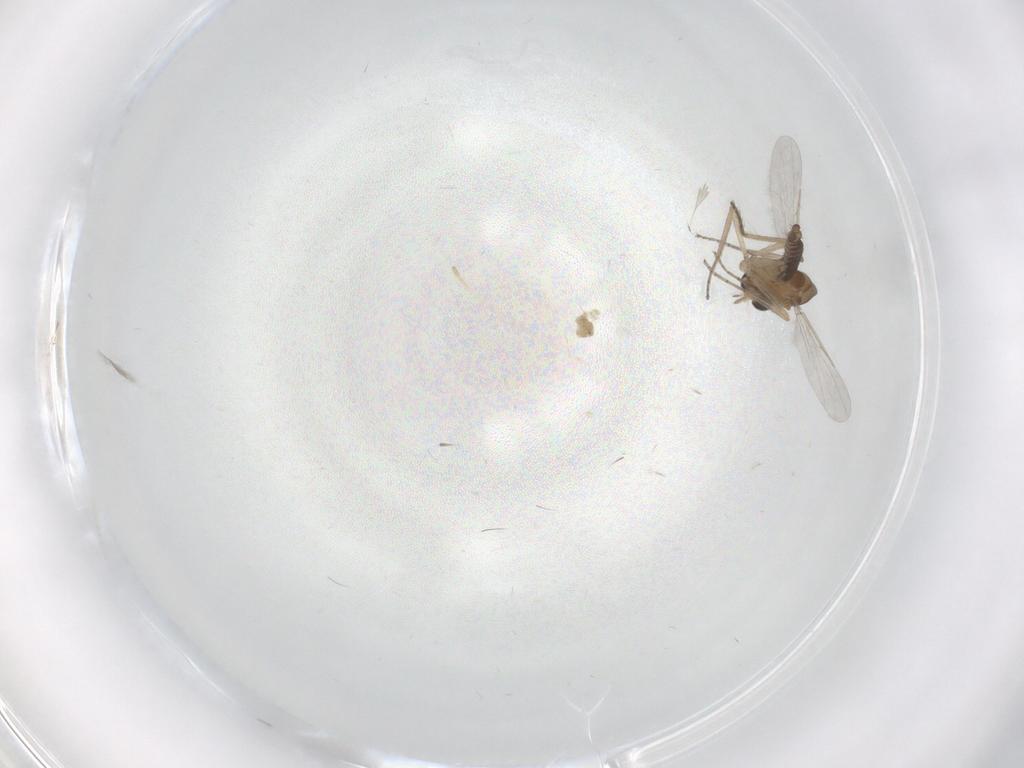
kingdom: Animalia
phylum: Arthropoda
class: Insecta
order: Diptera
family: Ceratopogonidae
